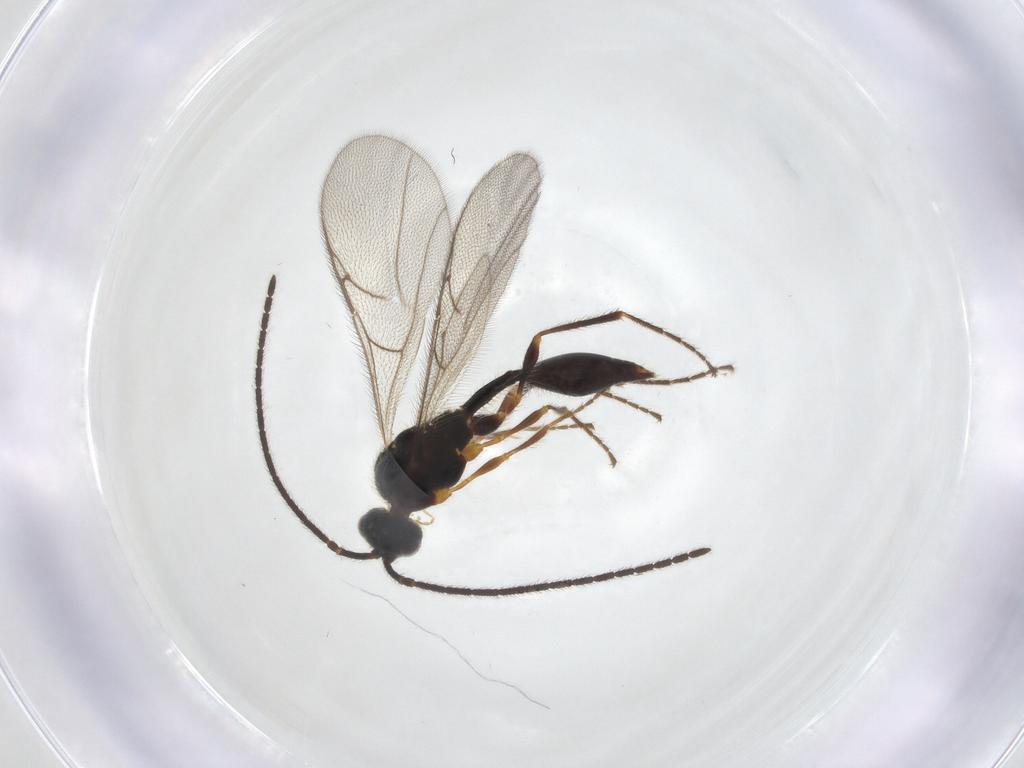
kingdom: Animalia
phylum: Arthropoda
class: Insecta
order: Hymenoptera
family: Diapriidae
